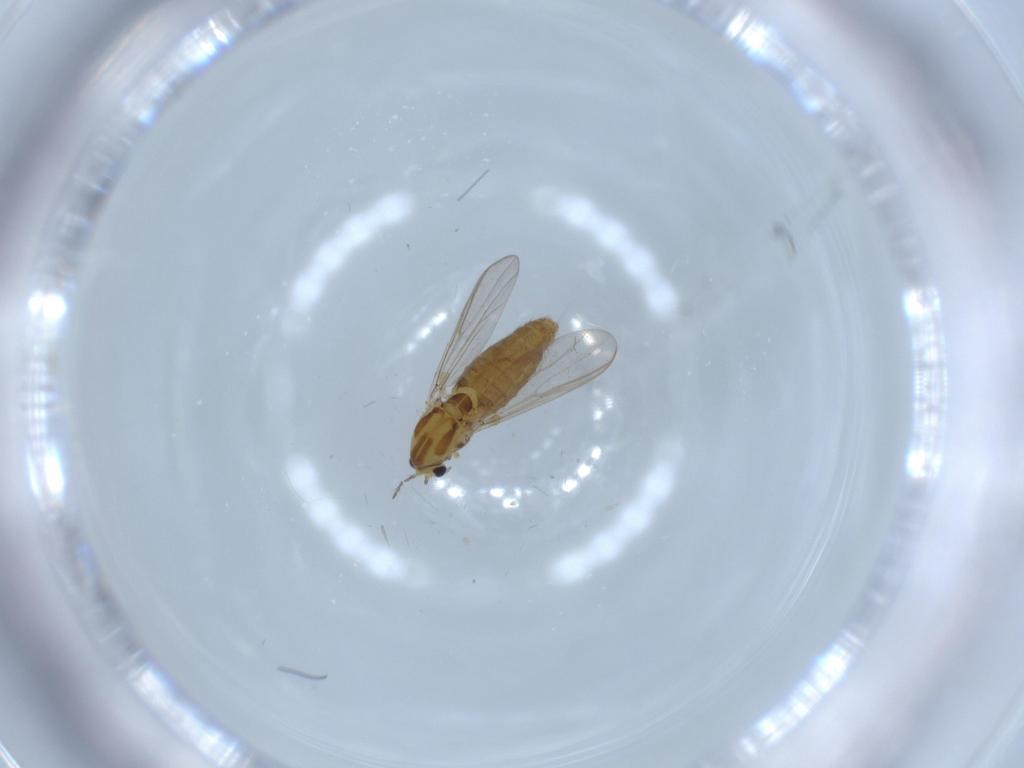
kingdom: Animalia
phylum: Arthropoda
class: Insecta
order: Diptera
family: Chironomidae
